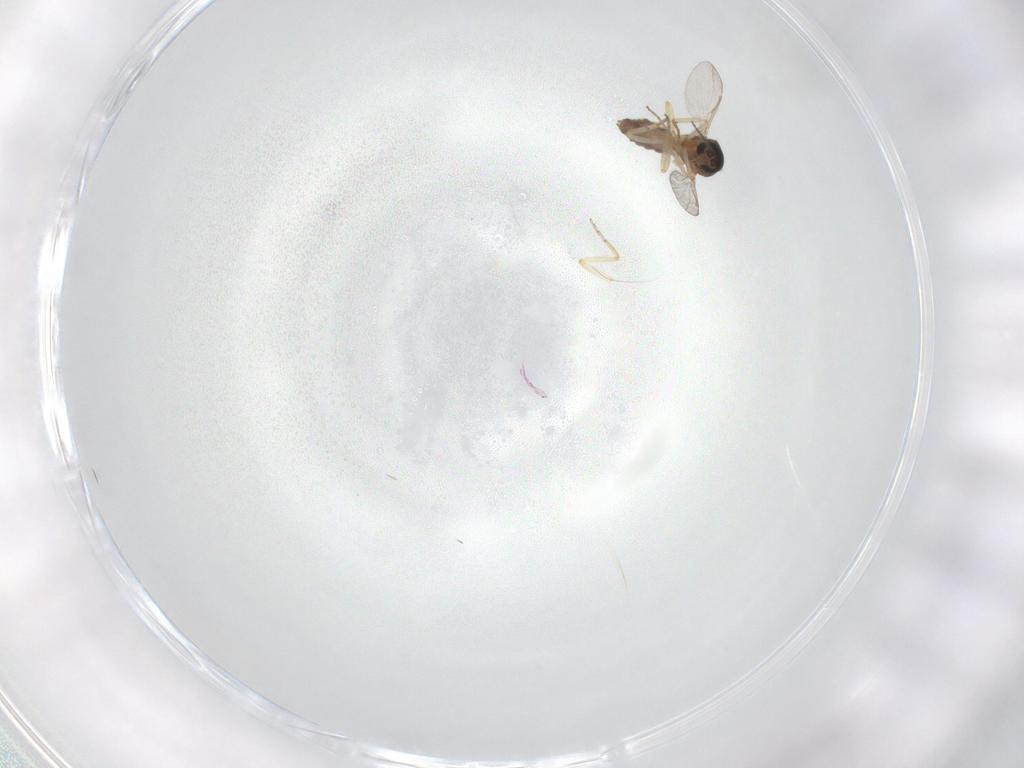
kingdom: Animalia
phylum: Arthropoda
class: Insecta
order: Diptera
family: Ceratopogonidae
